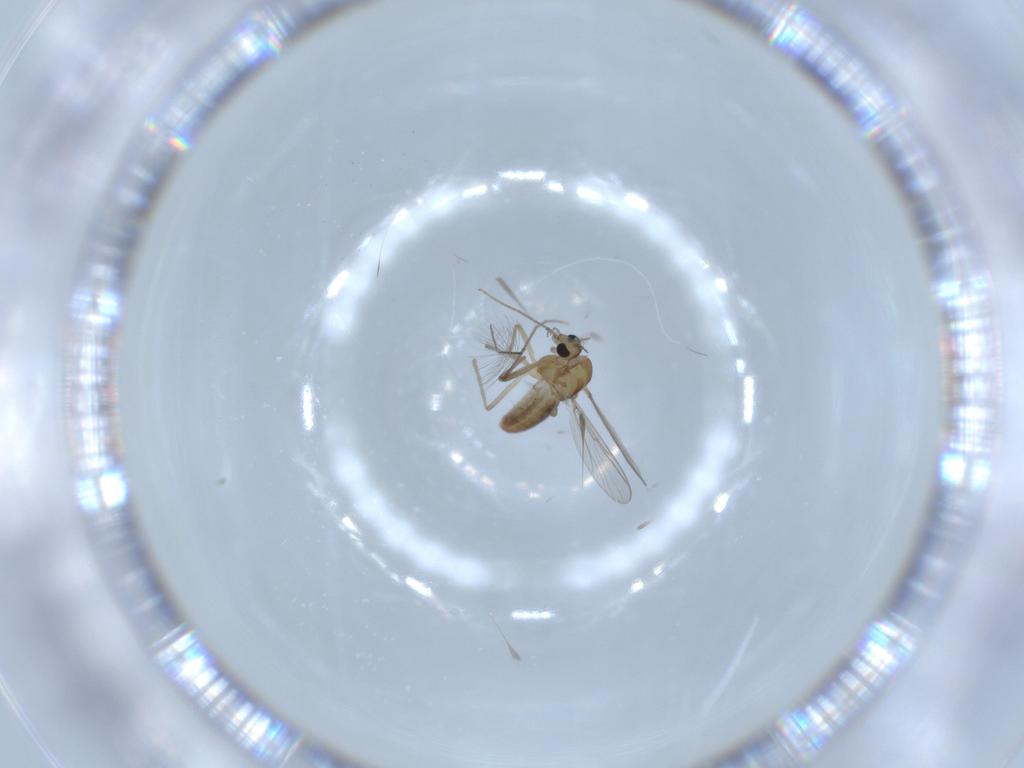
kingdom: Animalia
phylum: Arthropoda
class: Insecta
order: Diptera
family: Chironomidae
